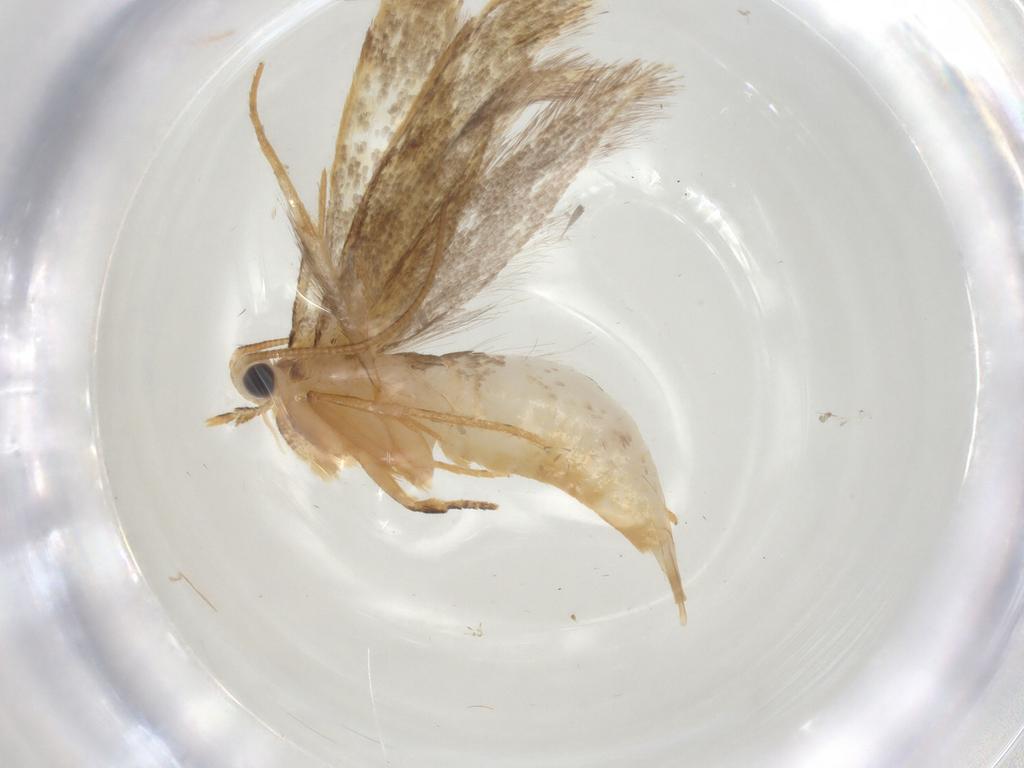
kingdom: Animalia
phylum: Arthropoda
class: Insecta
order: Lepidoptera
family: Tineidae
